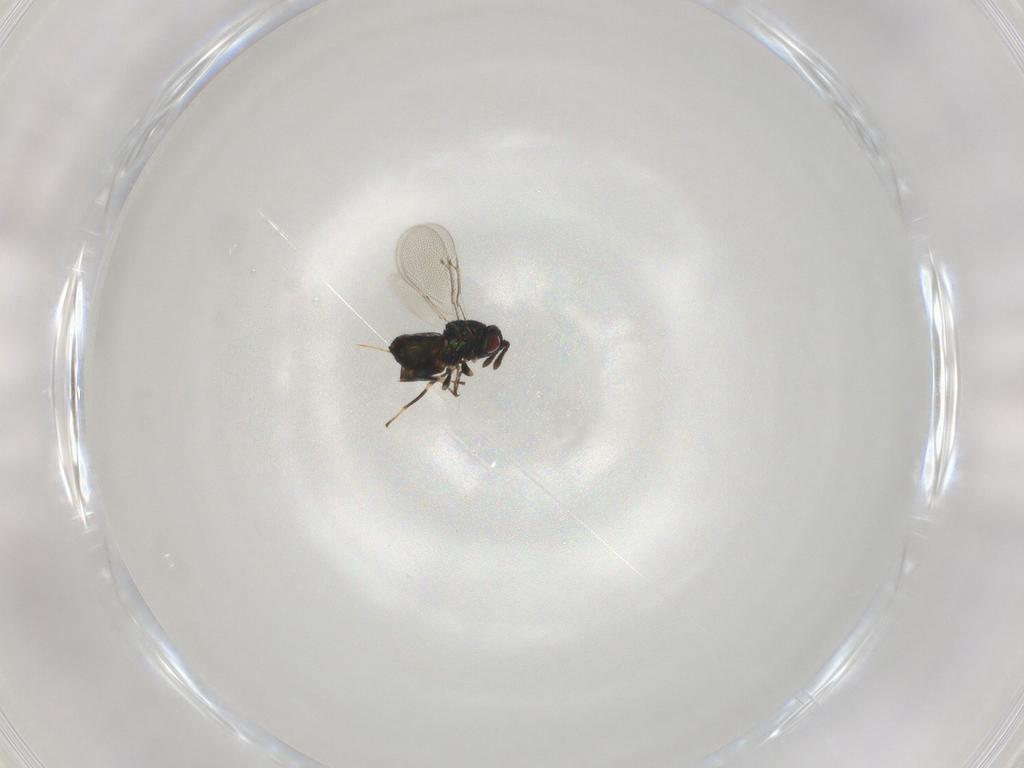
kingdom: Animalia
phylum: Arthropoda
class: Insecta
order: Hymenoptera
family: Pteromalidae
